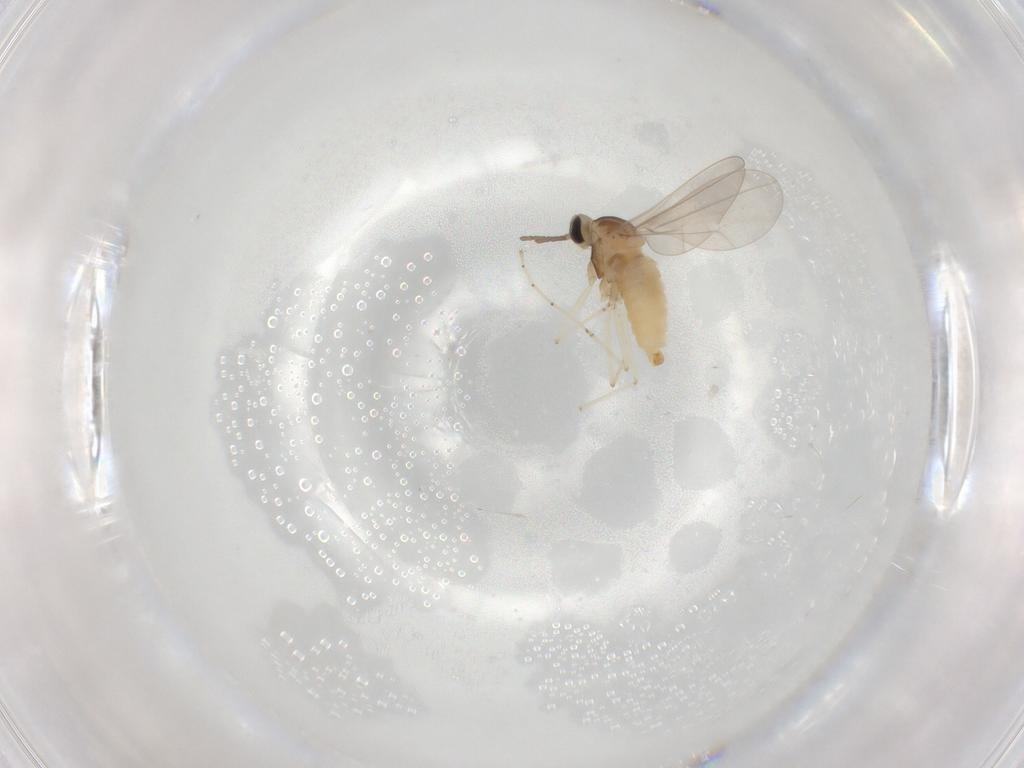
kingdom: Animalia
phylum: Arthropoda
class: Insecta
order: Diptera
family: Cecidomyiidae
